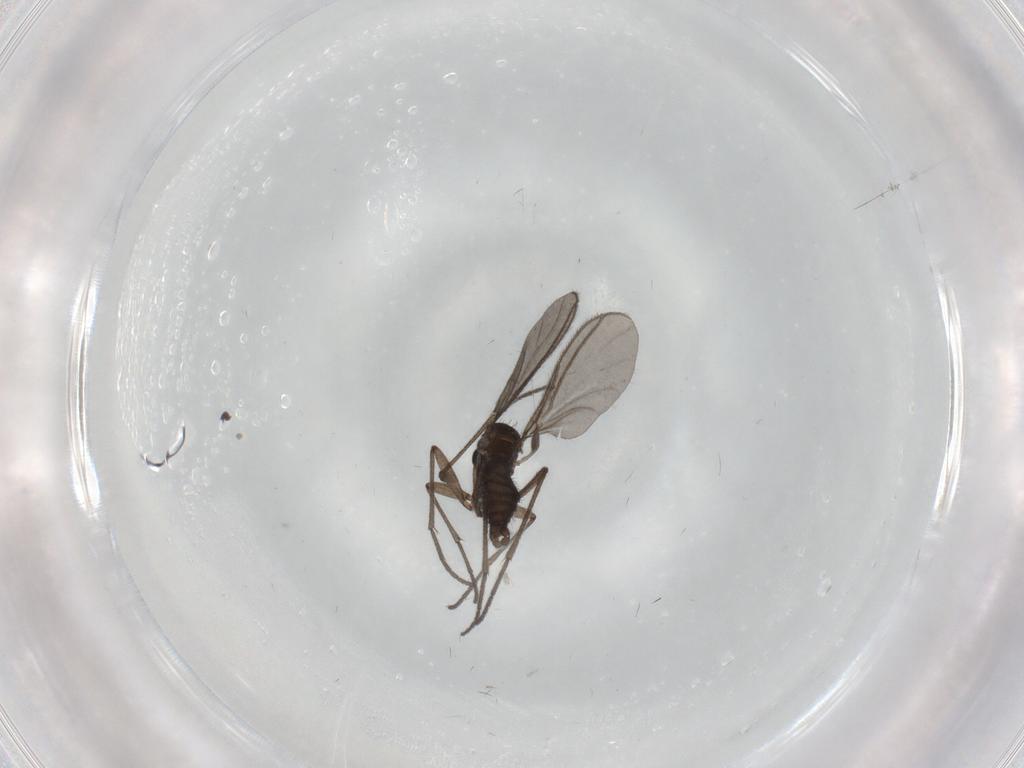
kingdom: Animalia
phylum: Arthropoda
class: Insecta
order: Diptera
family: Sciaridae
